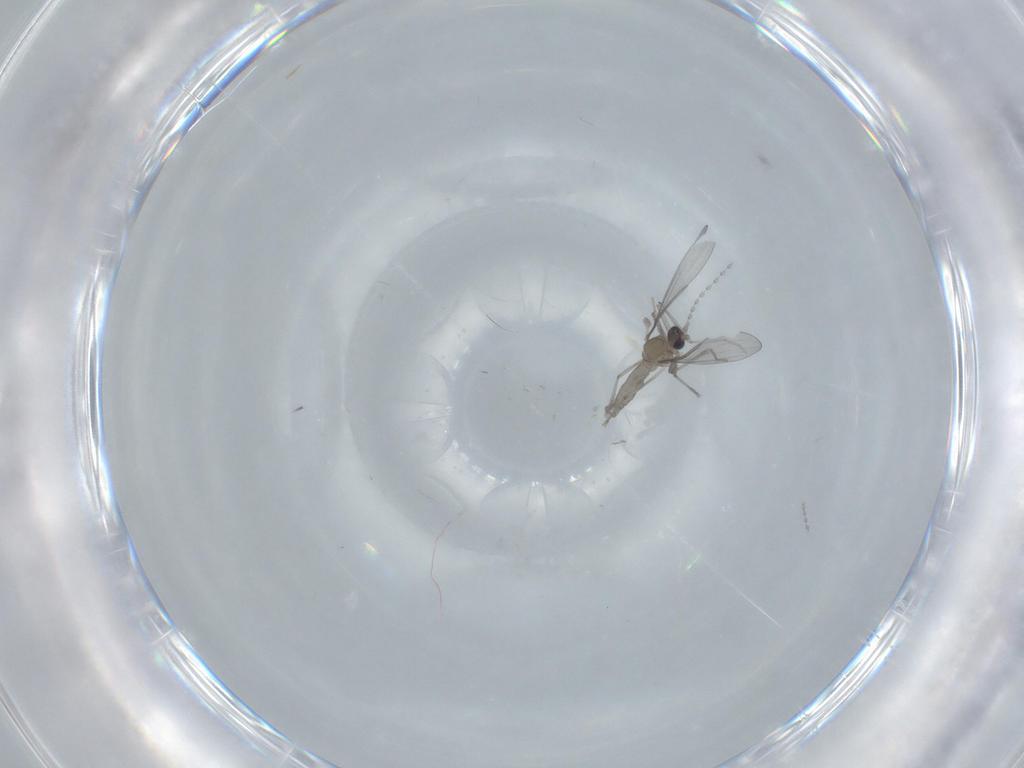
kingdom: Animalia
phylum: Arthropoda
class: Insecta
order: Diptera
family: Cecidomyiidae
